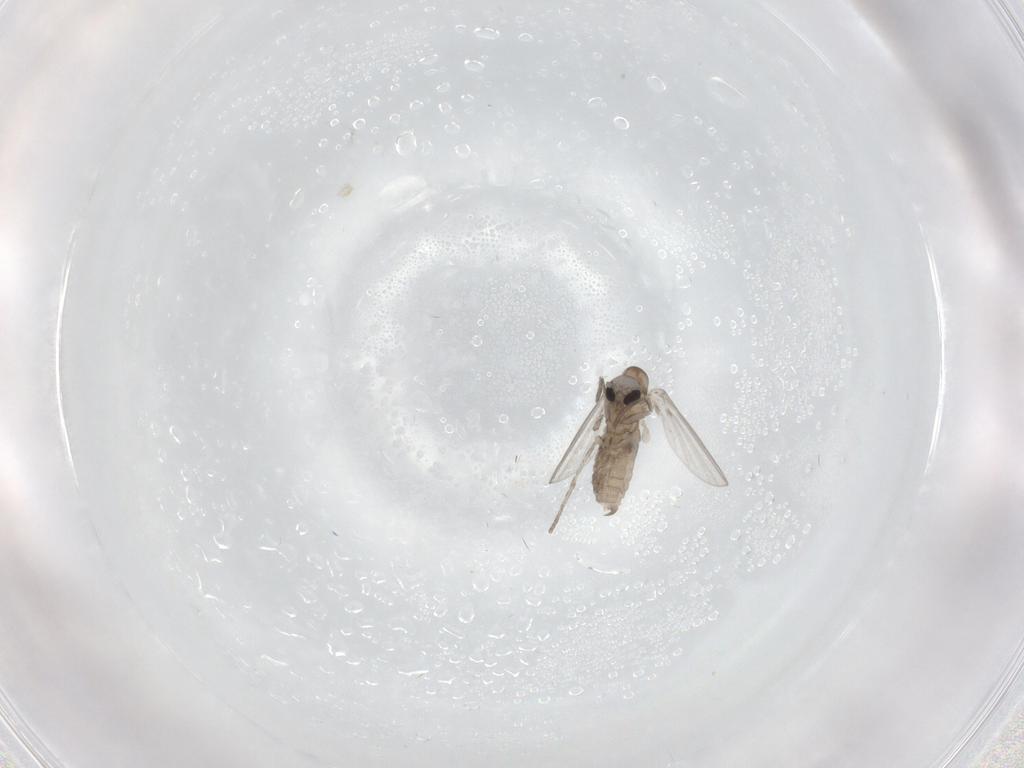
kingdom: Animalia
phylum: Arthropoda
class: Insecta
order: Diptera
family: Psychodidae
